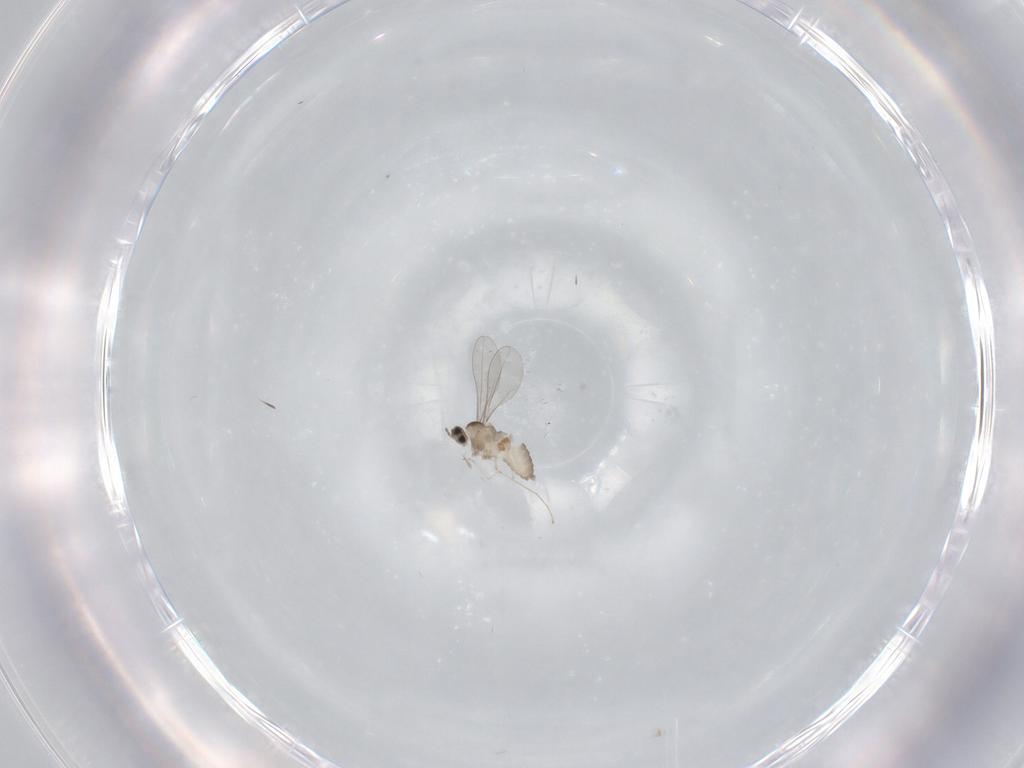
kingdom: Animalia
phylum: Arthropoda
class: Insecta
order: Diptera
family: Cecidomyiidae
